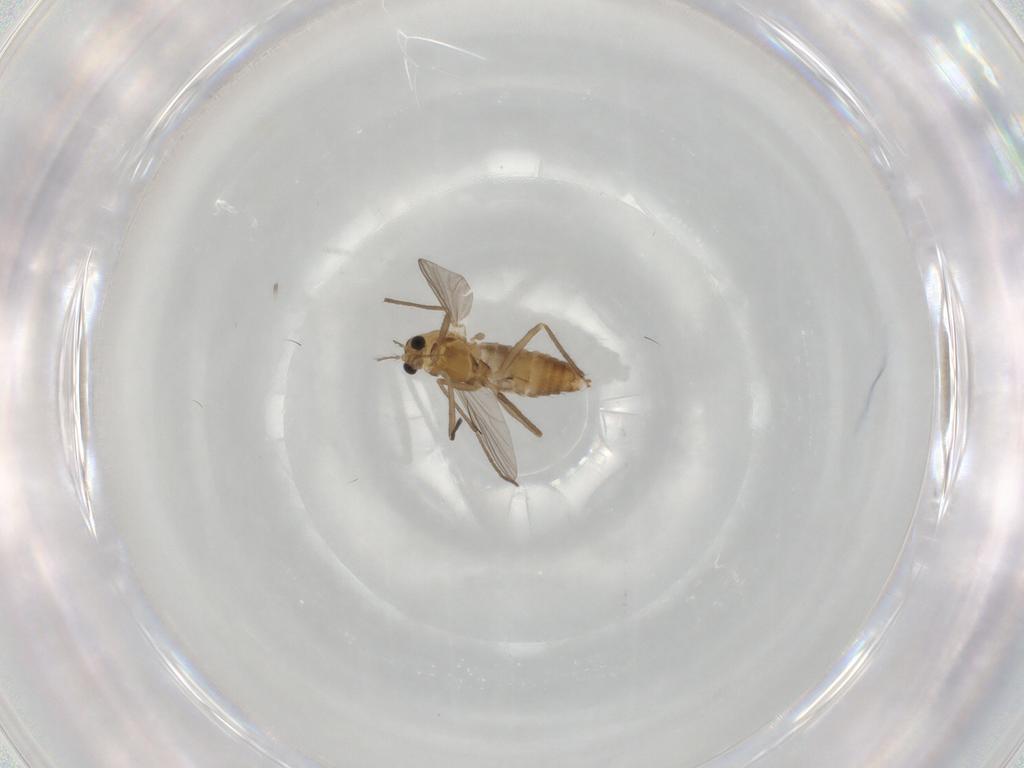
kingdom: Animalia
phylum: Arthropoda
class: Insecta
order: Diptera
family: Chironomidae
